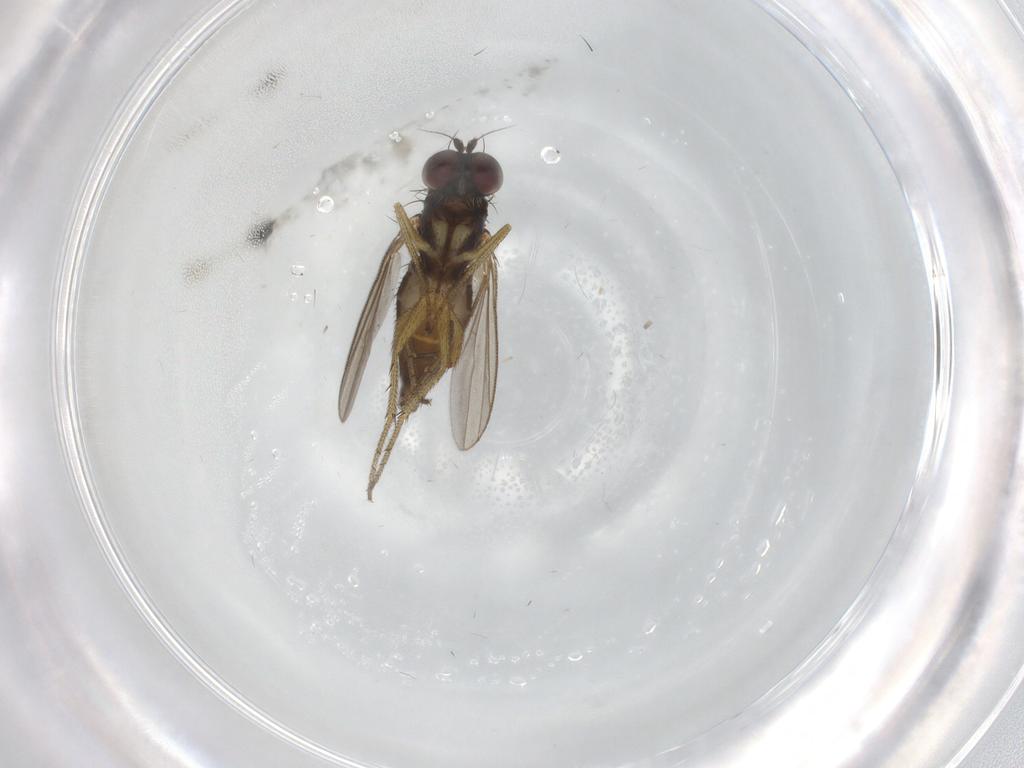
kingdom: Animalia
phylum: Arthropoda
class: Insecta
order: Diptera
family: Sciaridae
